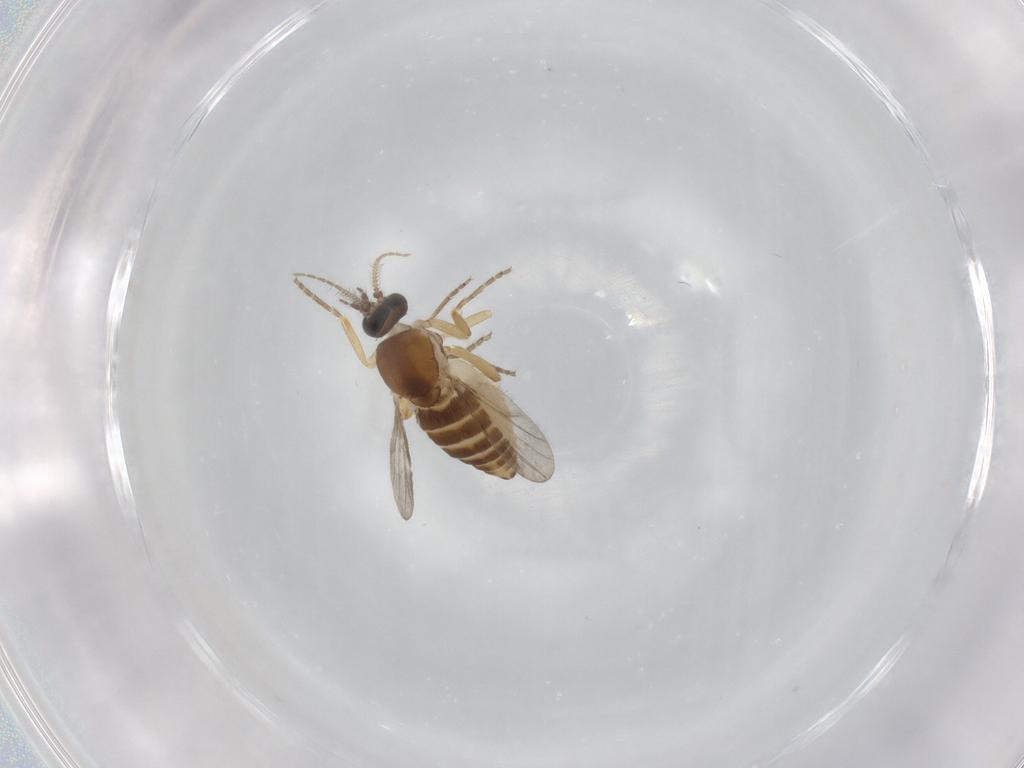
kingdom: Animalia
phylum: Arthropoda
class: Insecta
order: Diptera
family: Ceratopogonidae
